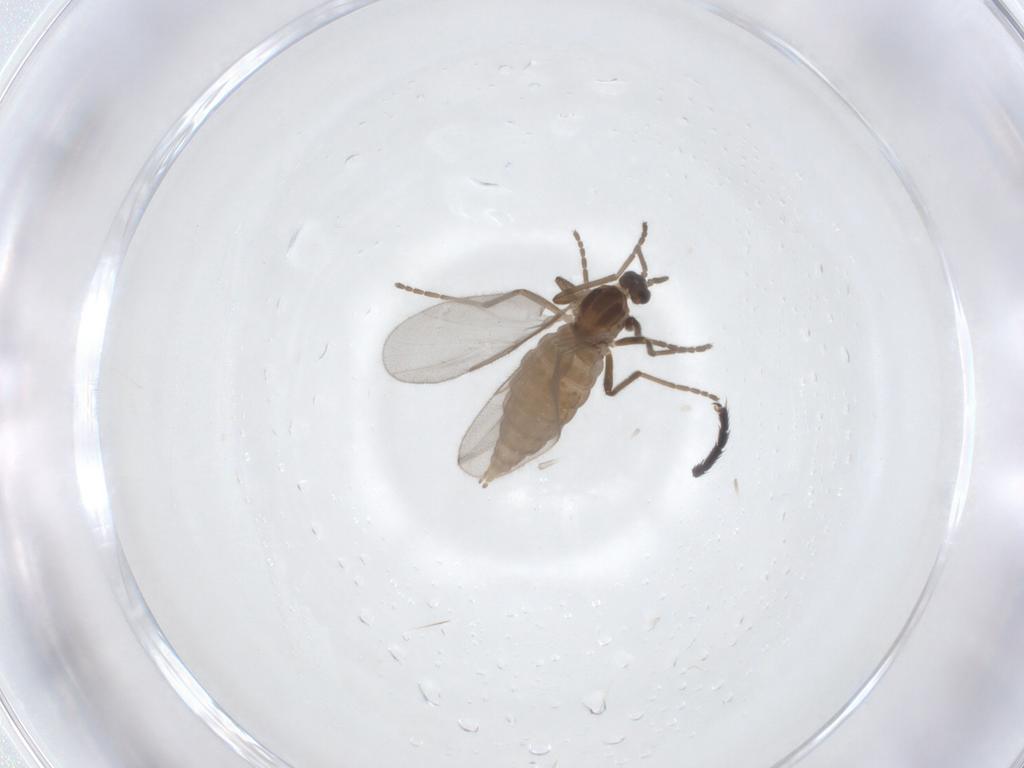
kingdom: Animalia
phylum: Arthropoda
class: Insecta
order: Diptera
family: Cecidomyiidae
